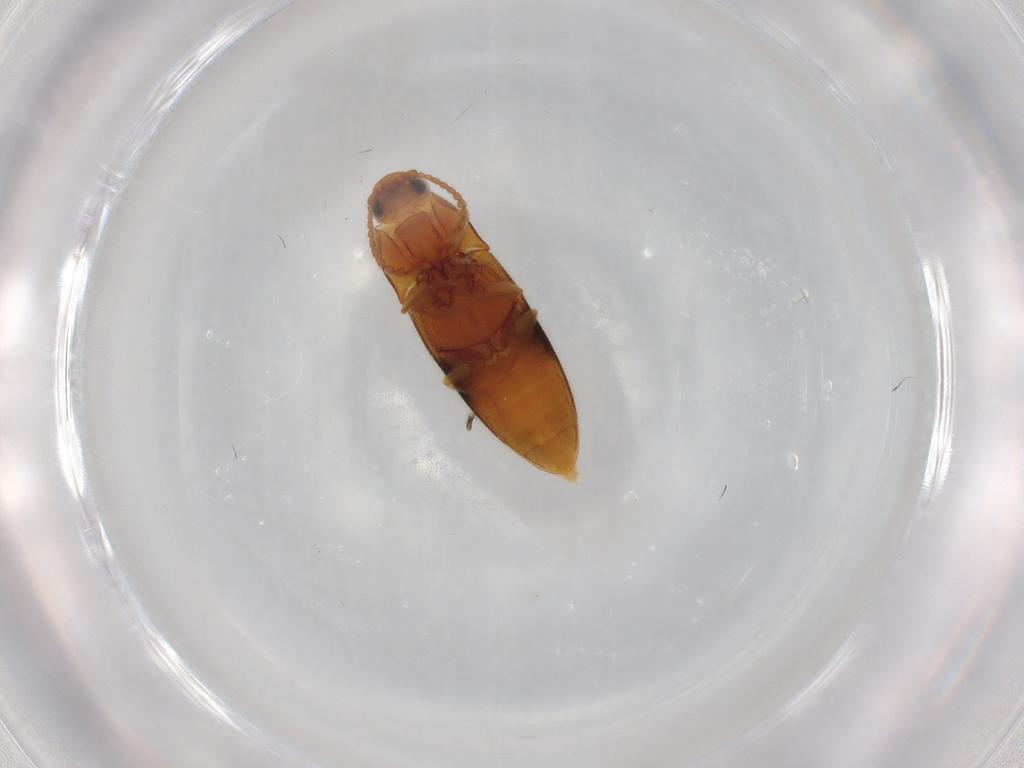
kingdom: Animalia
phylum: Arthropoda
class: Insecta
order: Coleoptera
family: Elateridae
